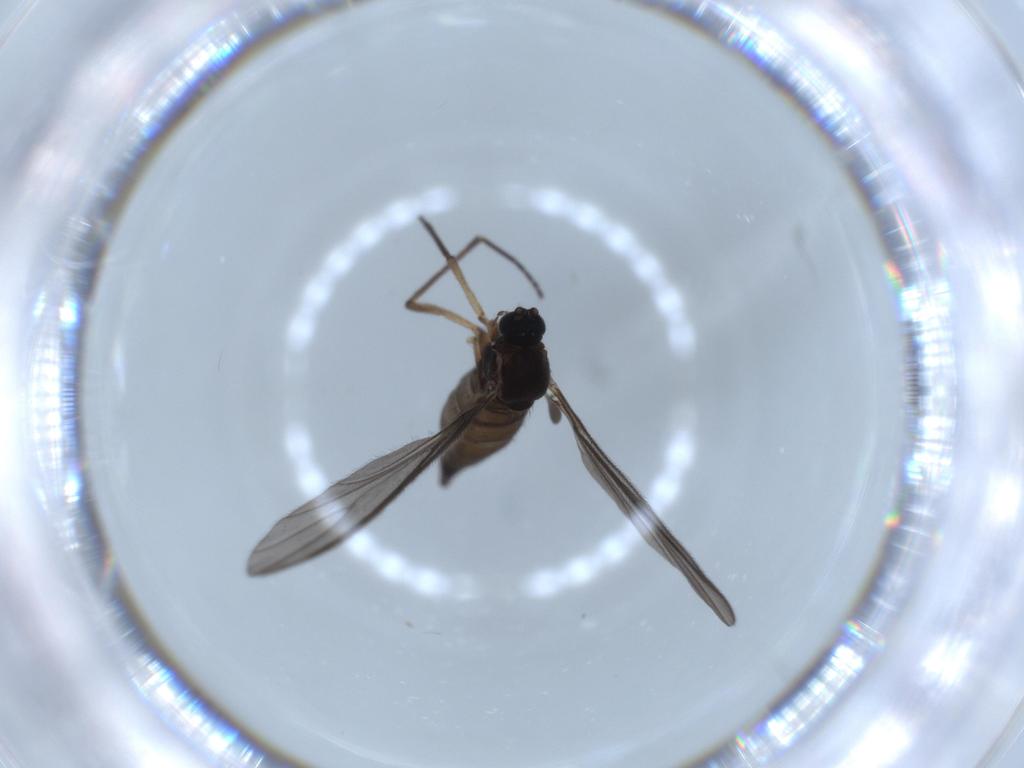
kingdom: Animalia
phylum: Arthropoda
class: Insecta
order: Diptera
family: Sciaridae
